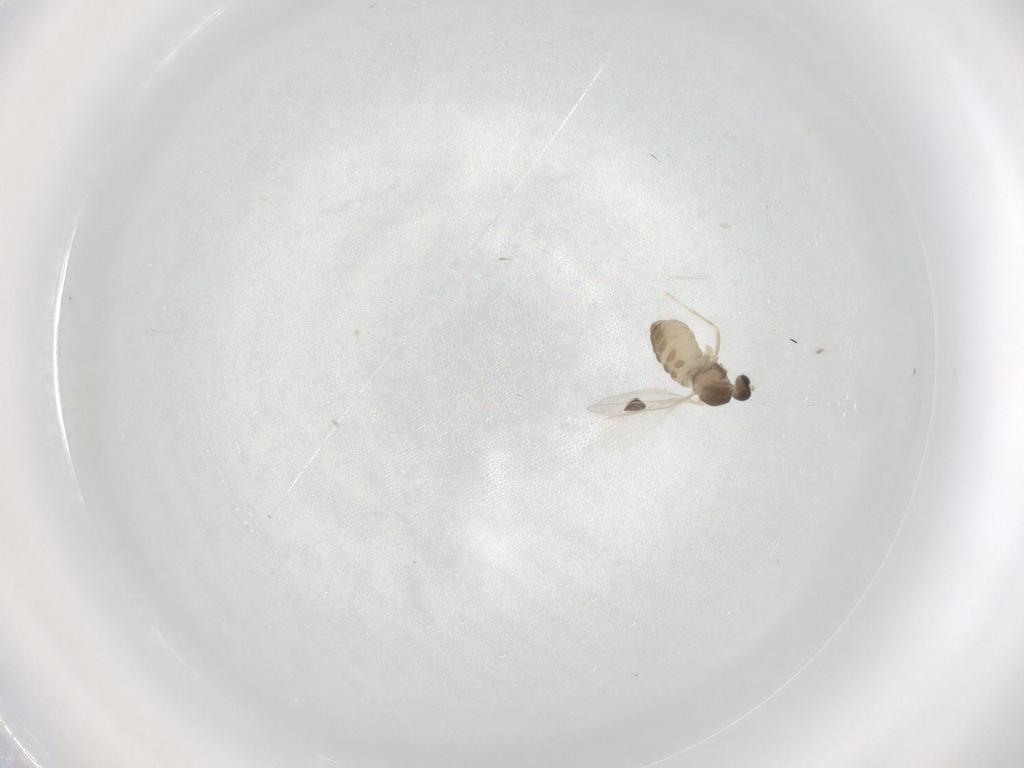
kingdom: Animalia
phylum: Arthropoda
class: Insecta
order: Diptera
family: Cecidomyiidae
